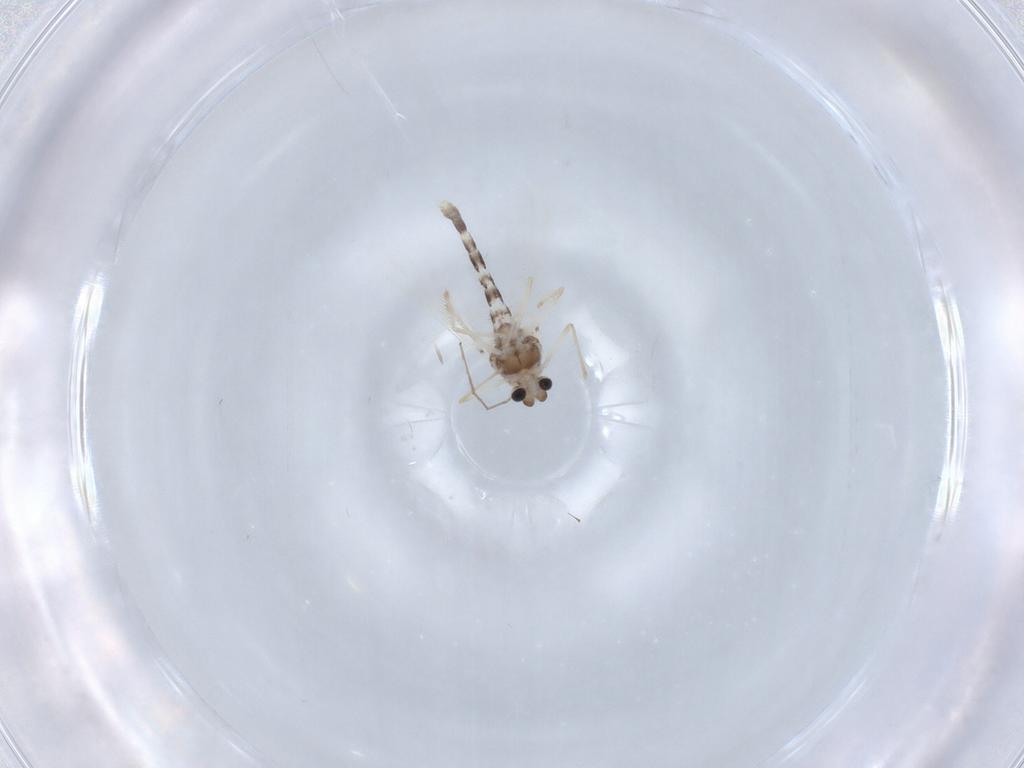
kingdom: Animalia
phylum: Arthropoda
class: Insecta
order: Diptera
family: Chironomidae
